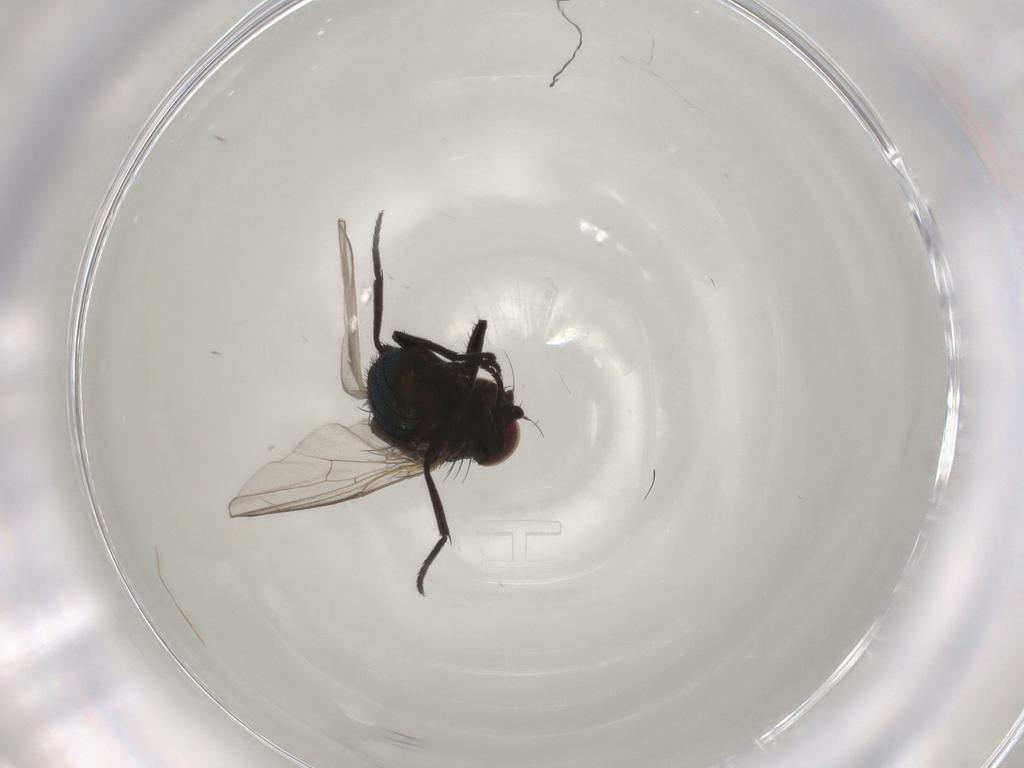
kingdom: Animalia
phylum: Arthropoda
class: Insecta
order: Diptera
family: Agromyzidae
